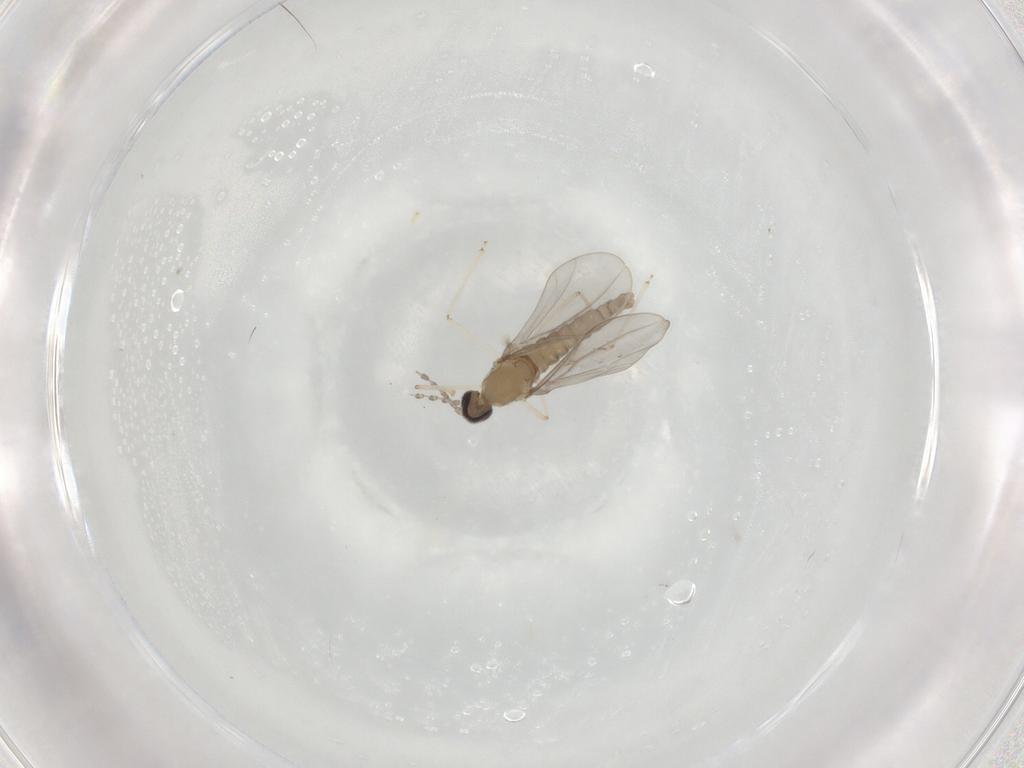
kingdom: Animalia
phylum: Arthropoda
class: Insecta
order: Diptera
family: Cecidomyiidae
